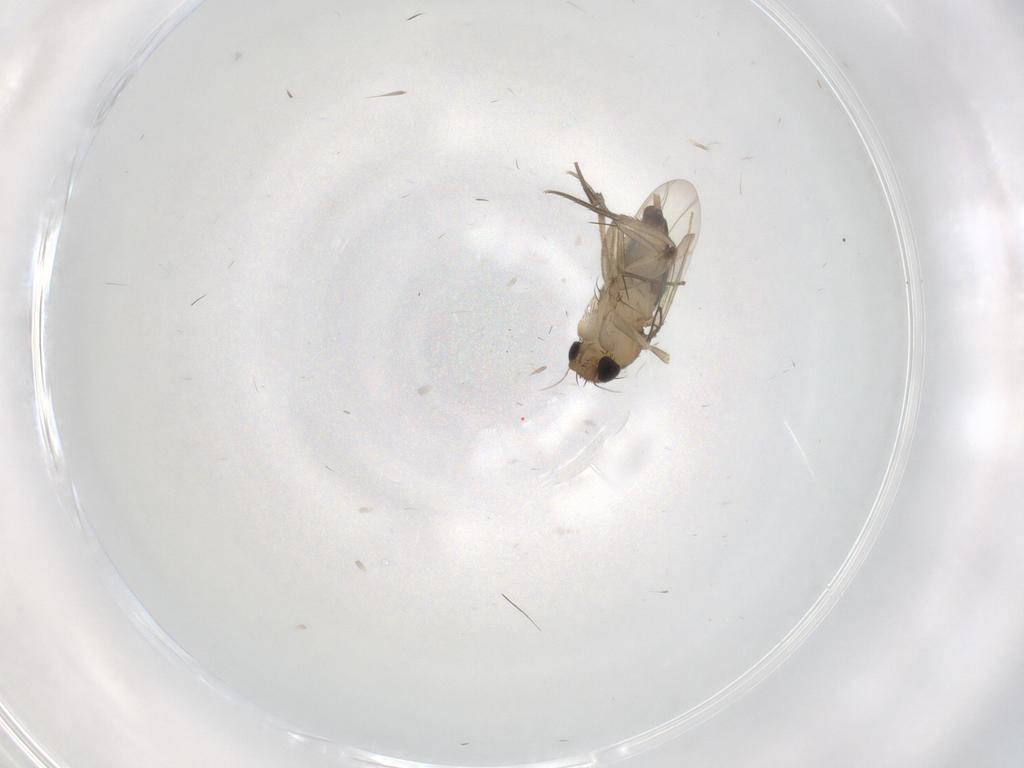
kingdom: Animalia
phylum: Arthropoda
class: Insecta
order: Diptera
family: Phoridae
